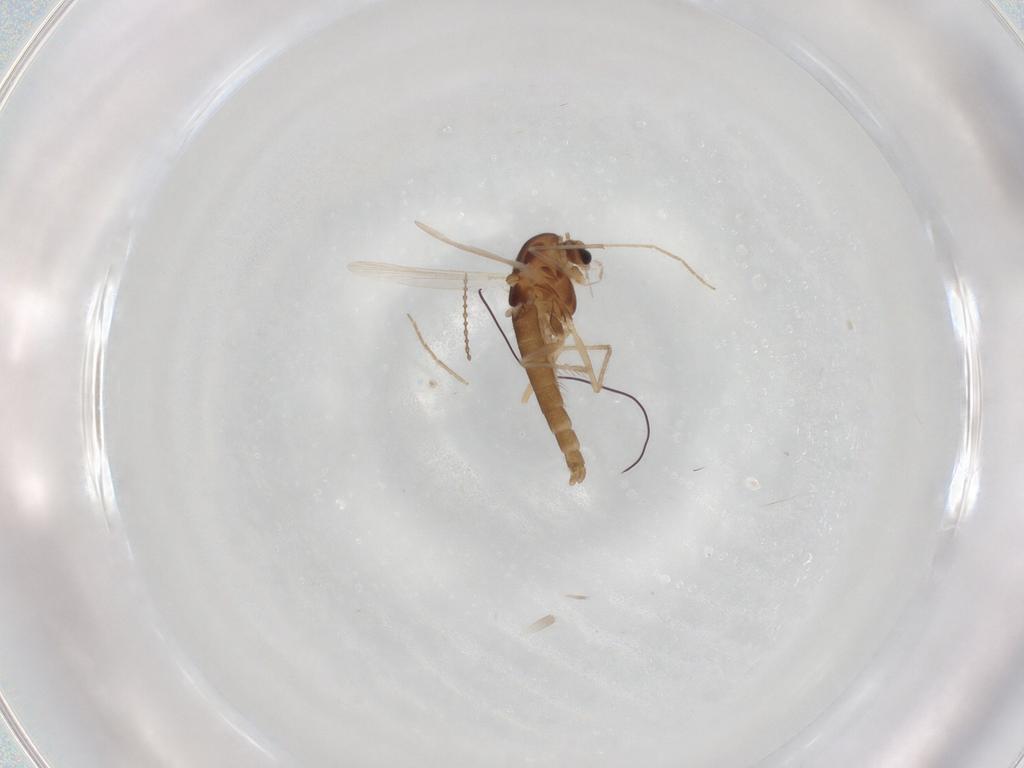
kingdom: Animalia
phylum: Arthropoda
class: Insecta
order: Diptera
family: Chironomidae
